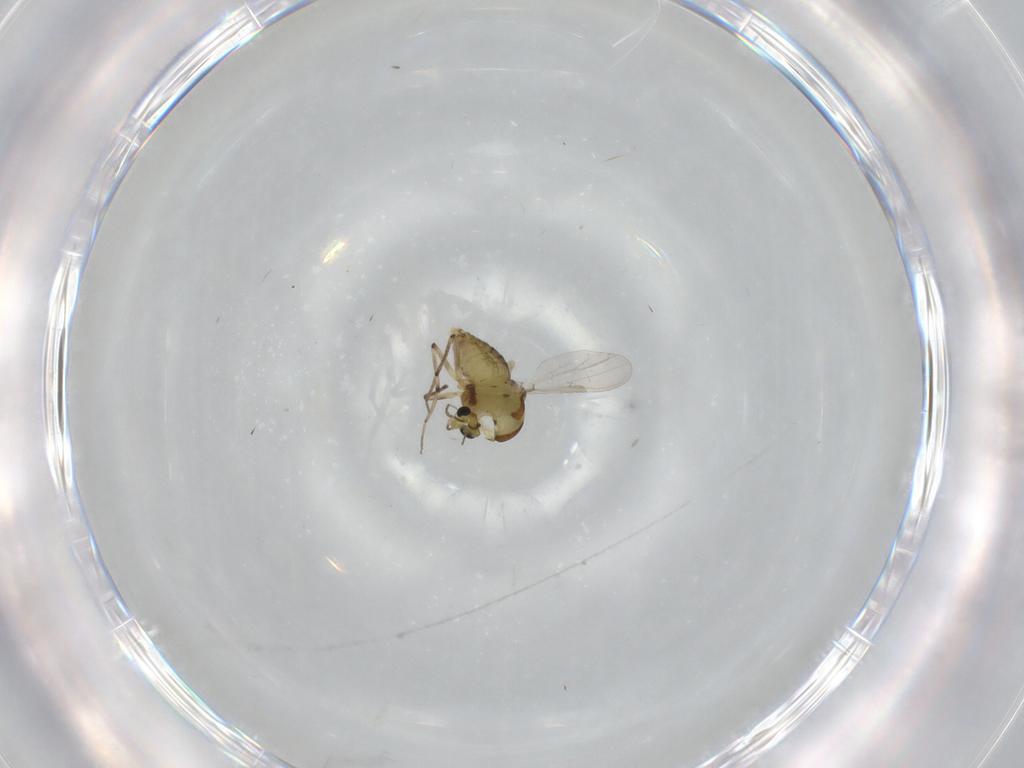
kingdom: Animalia
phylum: Arthropoda
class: Insecta
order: Diptera
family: Chironomidae
